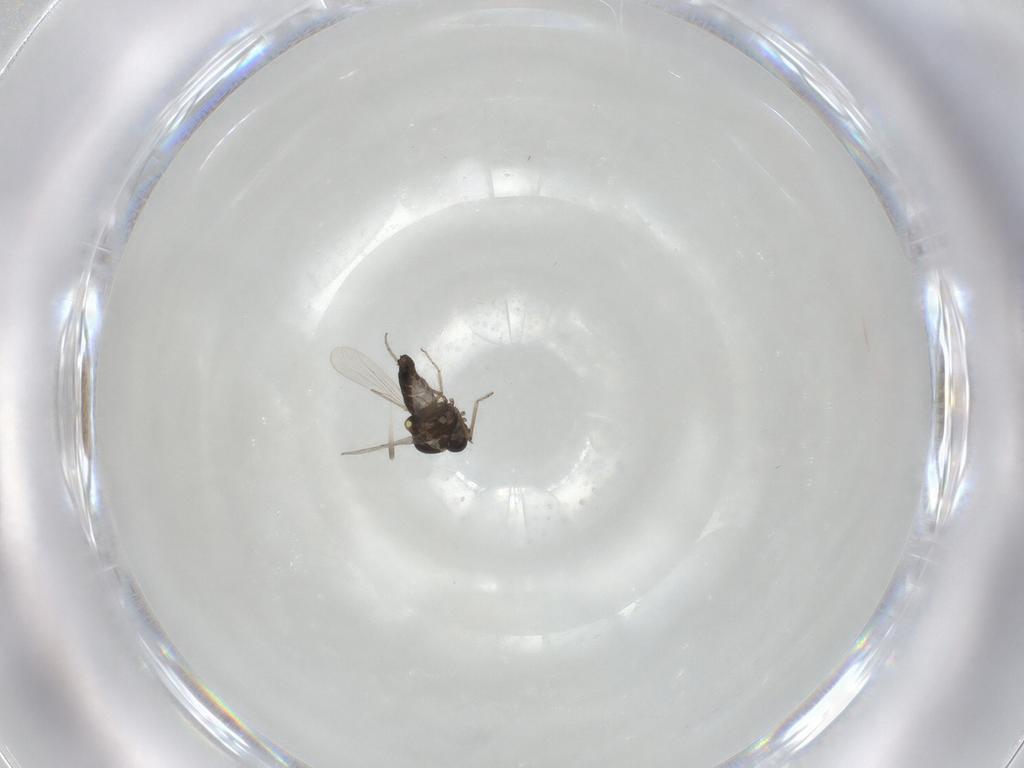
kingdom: Animalia
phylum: Arthropoda
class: Insecta
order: Diptera
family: Ceratopogonidae
